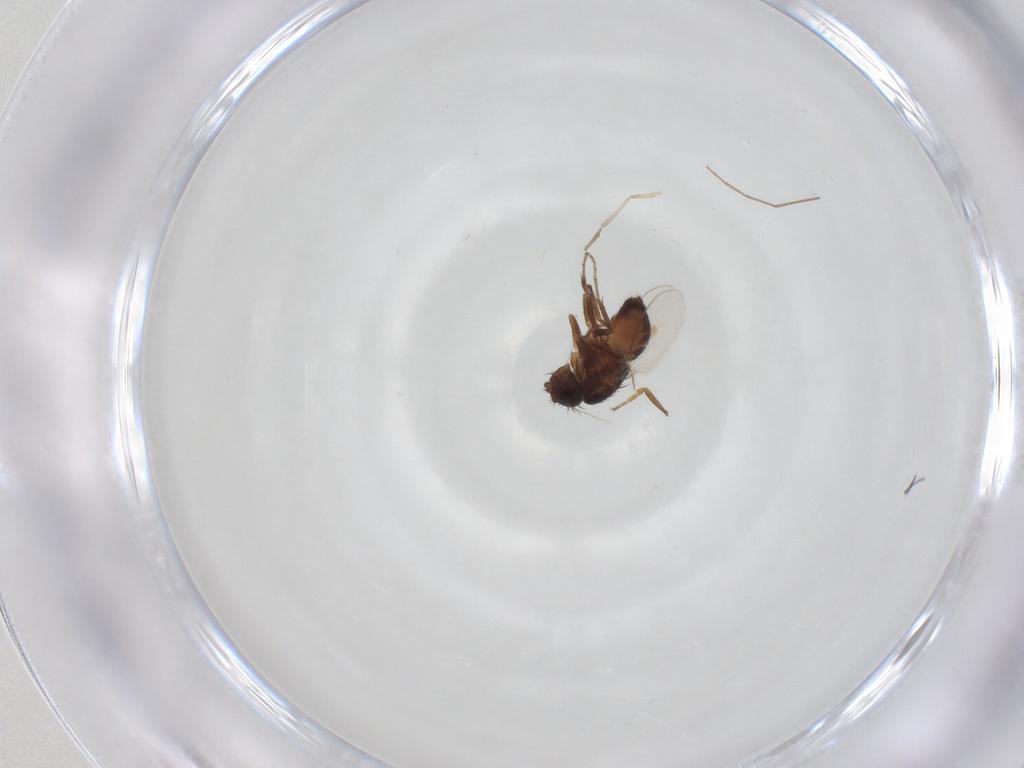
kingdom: Animalia
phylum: Arthropoda
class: Insecta
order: Diptera
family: Sphaeroceridae
